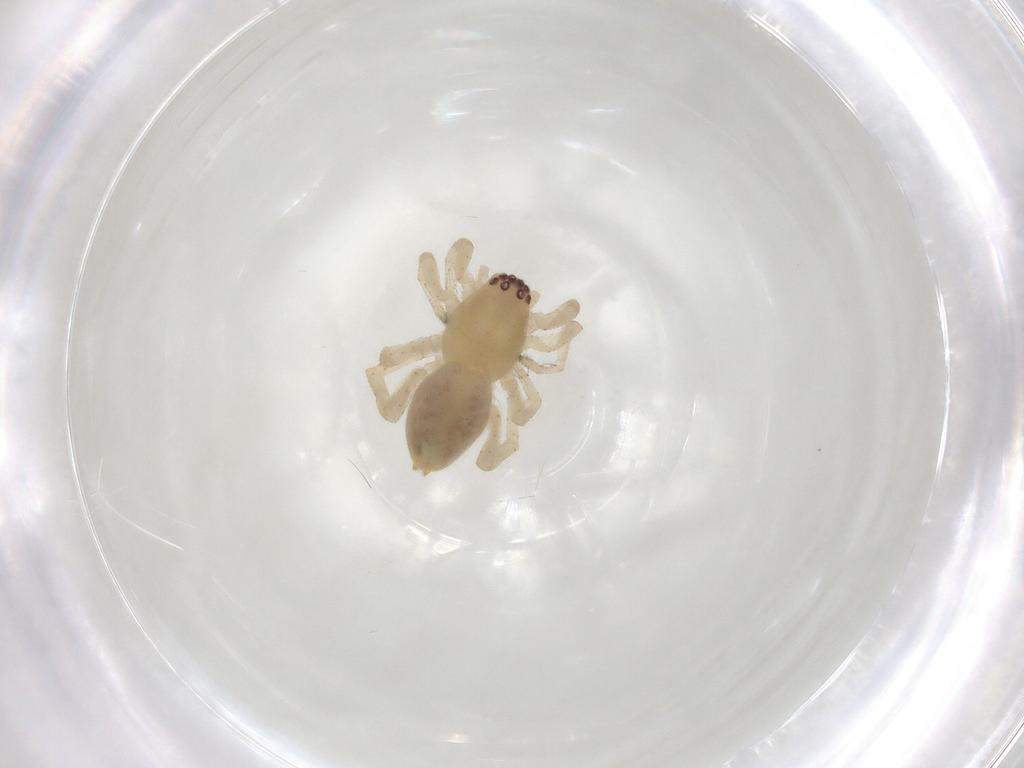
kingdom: Animalia
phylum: Arthropoda
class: Arachnida
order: Araneae
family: Clubionidae
